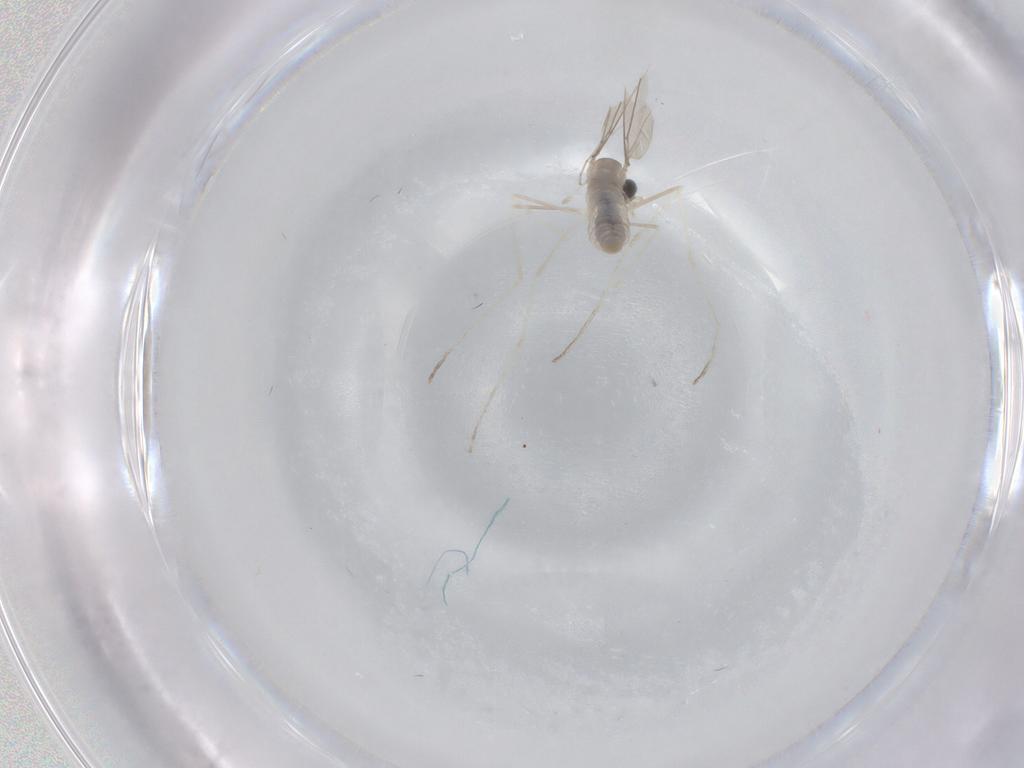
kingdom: Animalia
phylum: Arthropoda
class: Insecta
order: Diptera
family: Cecidomyiidae
